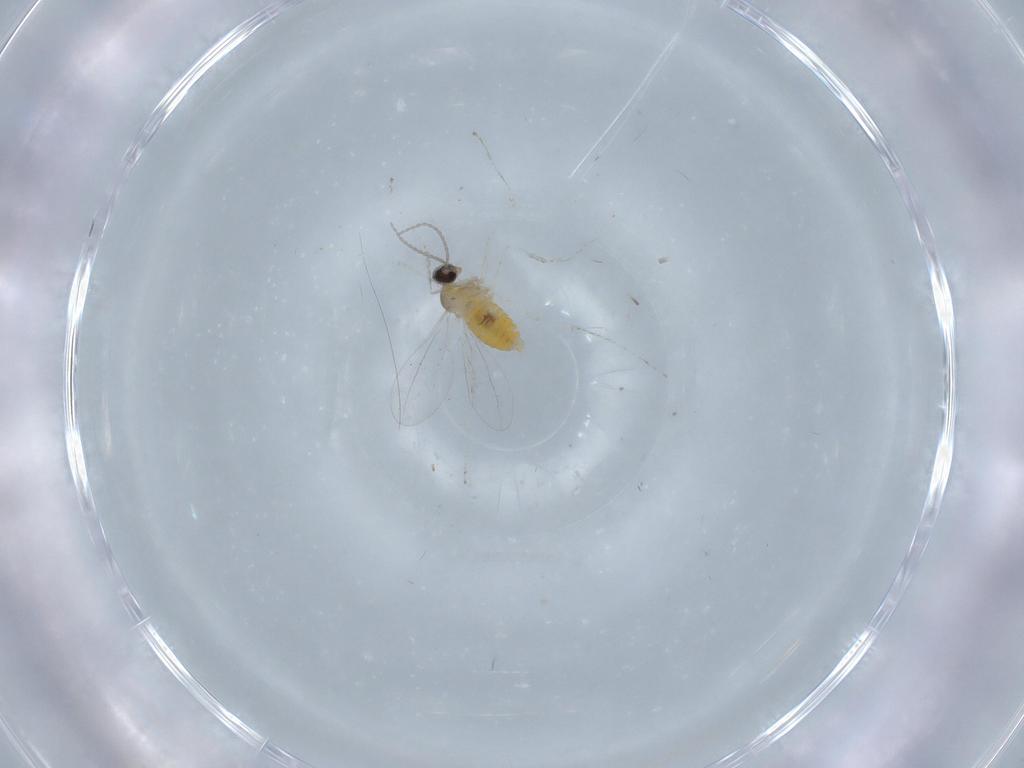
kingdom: Animalia
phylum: Arthropoda
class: Insecta
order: Diptera
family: Cecidomyiidae
